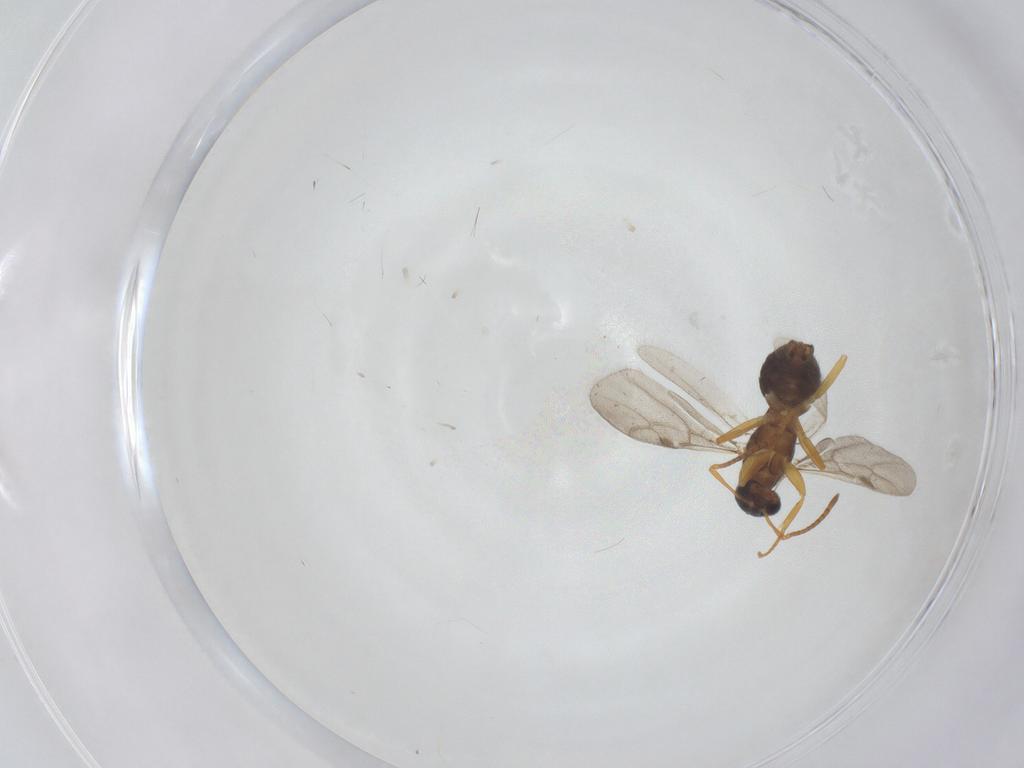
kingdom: Animalia
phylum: Arthropoda
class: Insecta
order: Hymenoptera
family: Formicidae
